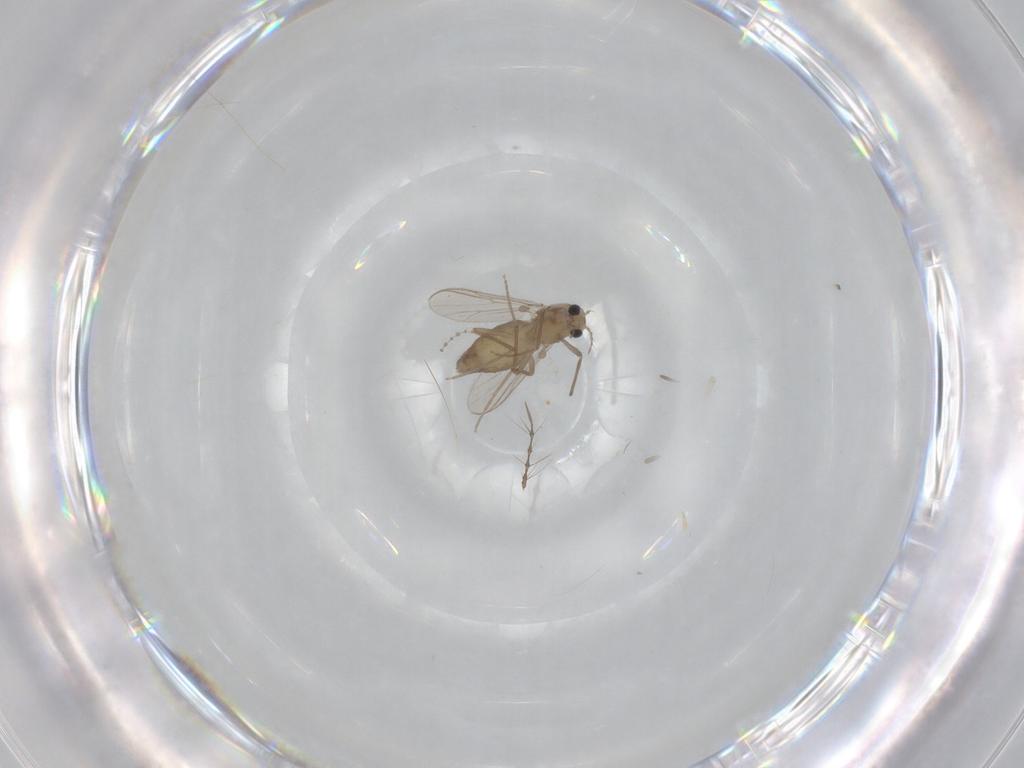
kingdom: Animalia
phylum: Arthropoda
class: Insecta
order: Diptera
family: Chironomidae
